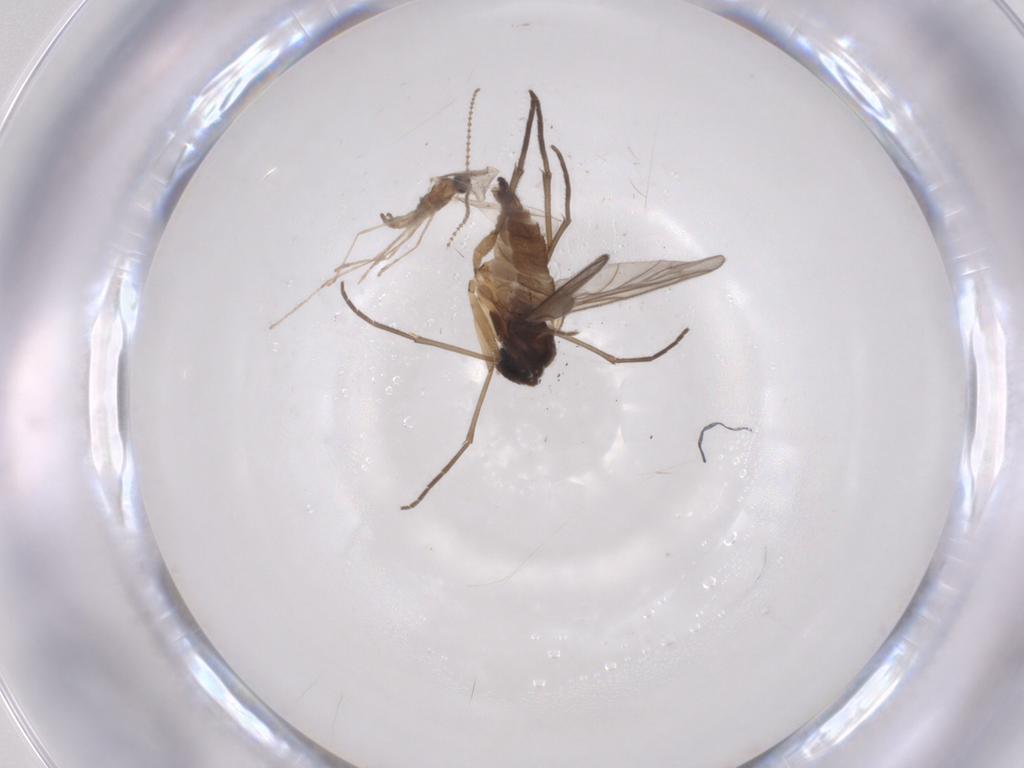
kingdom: Animalia
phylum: Arthropoda
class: Insecta
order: Diptera
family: Sciaridae
